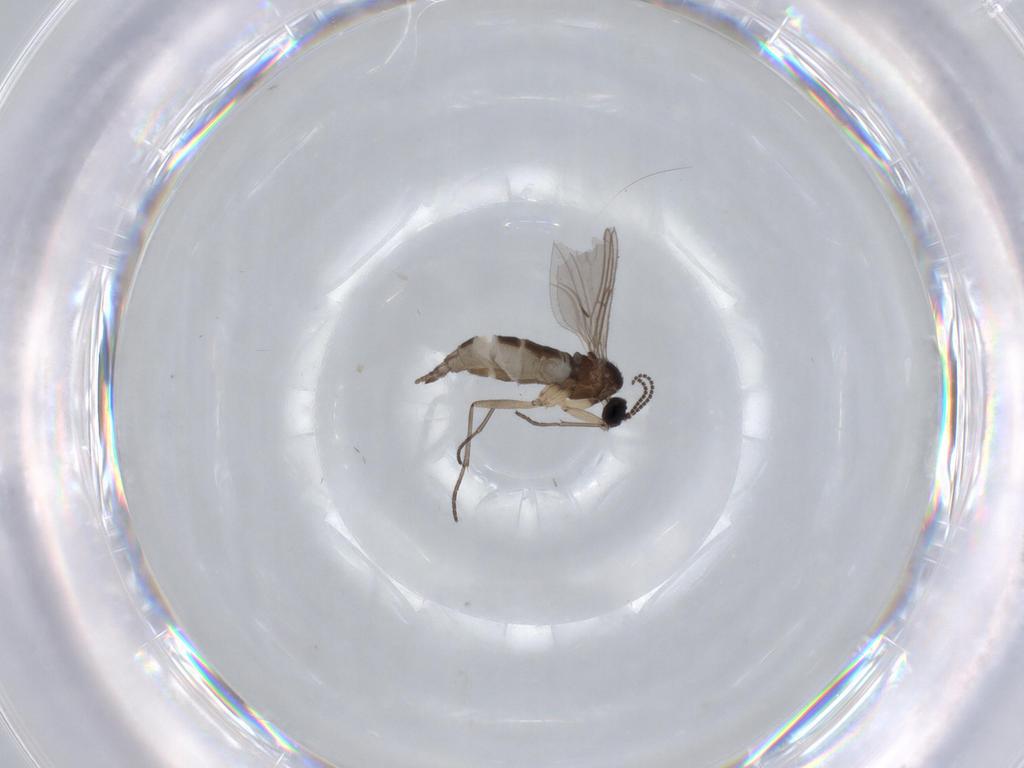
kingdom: Animalia
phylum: Arthropoda
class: Insecta
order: Diptera
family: Sciaridae
